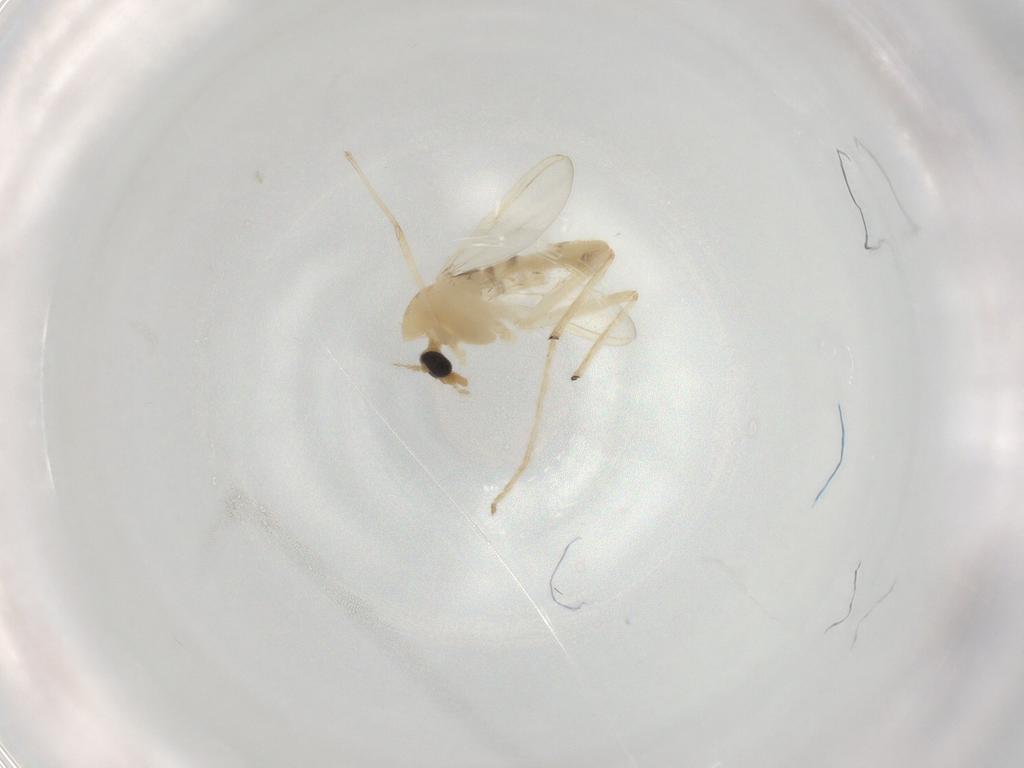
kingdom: Animalia
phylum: Arthropoda
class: Insecta
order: Diptera
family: Chironomidae
